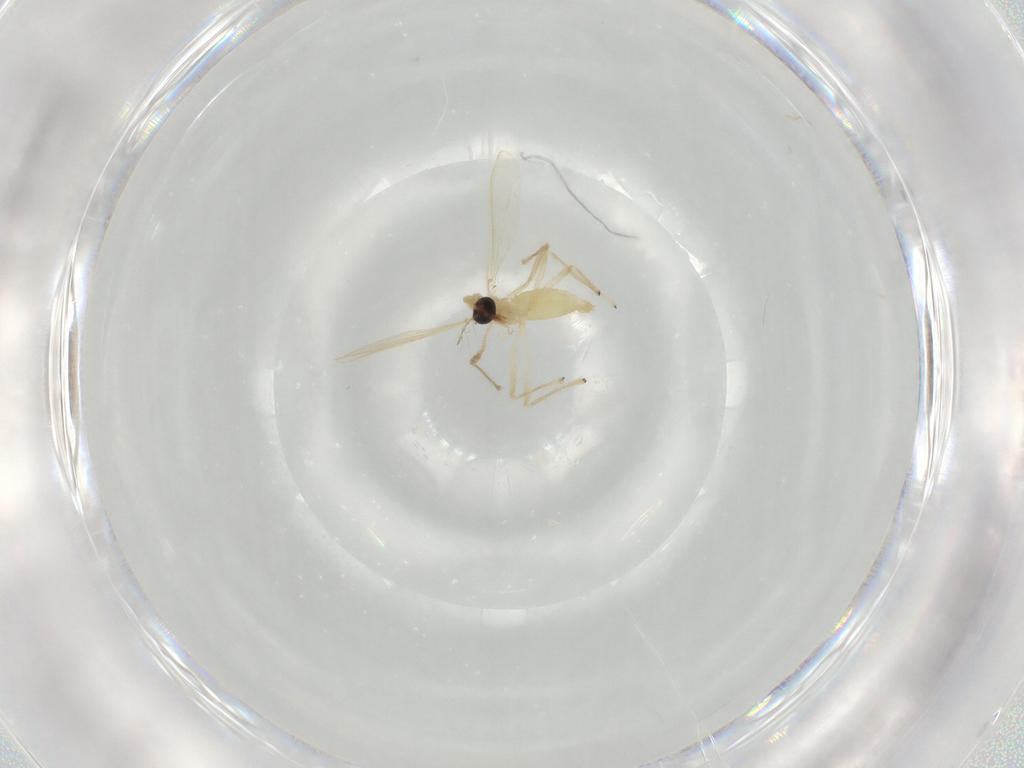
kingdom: Animalia
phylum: Arthropoda
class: Insecta
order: Diptera
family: Chironomidae
